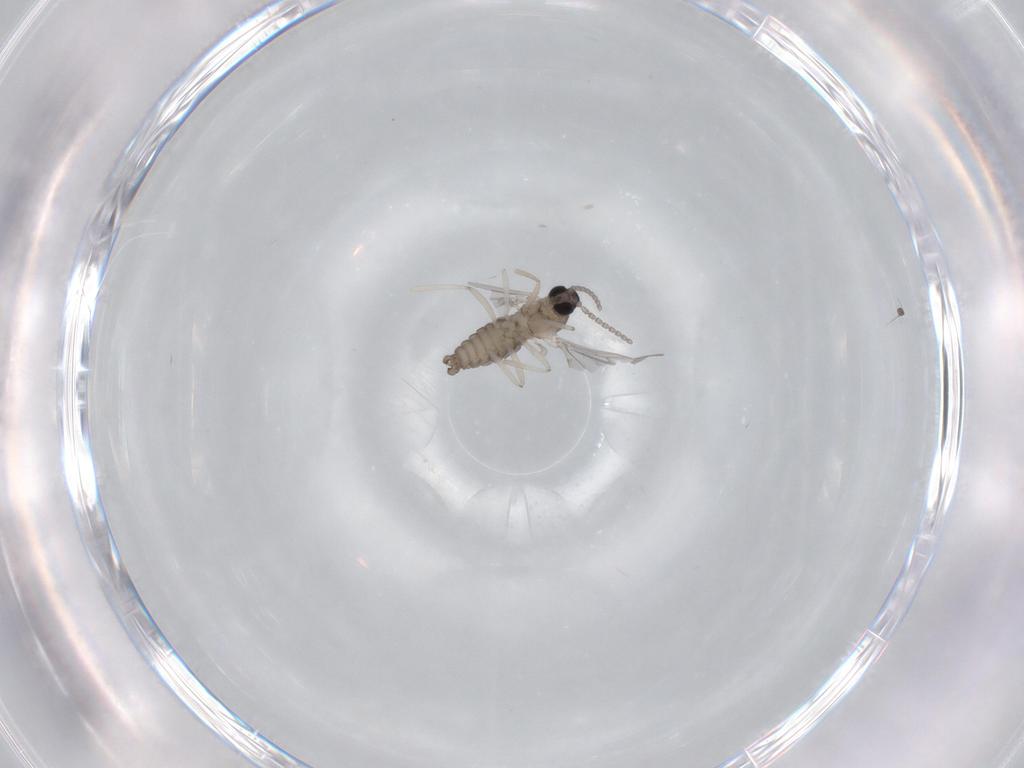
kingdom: Animalia
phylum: Arthropoda
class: Insecta
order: Diptera
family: Cecidomyiidae
